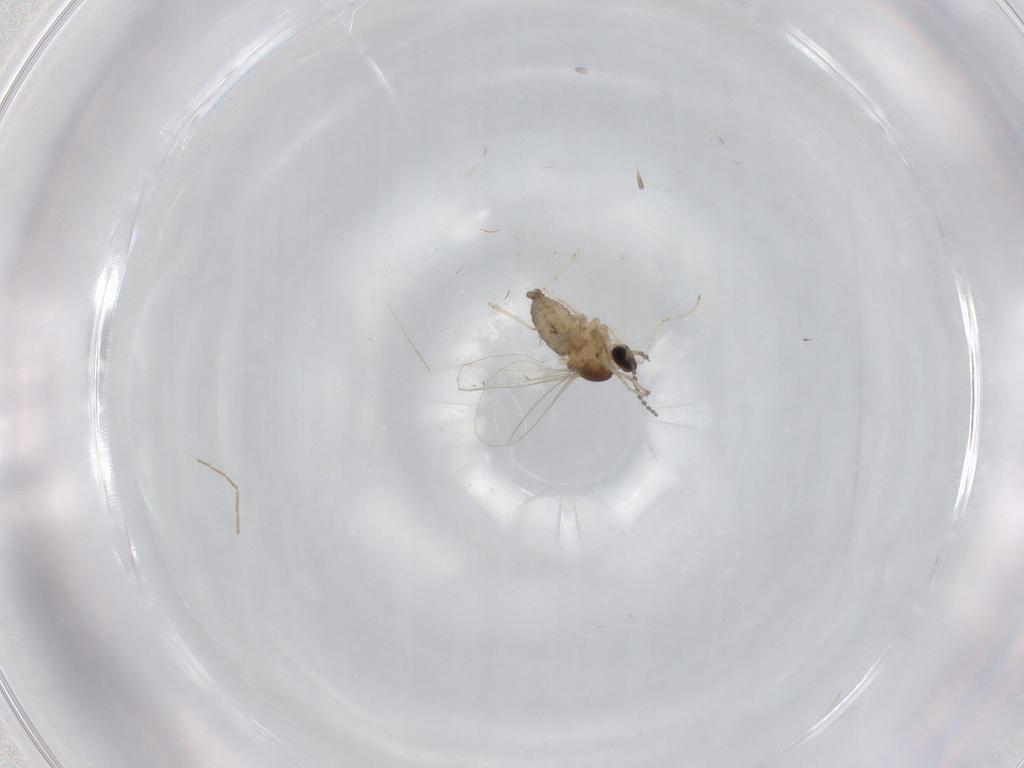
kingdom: Animalia
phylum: Arthropoda
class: Insecta
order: Diptera
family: Cecidomyiidae
